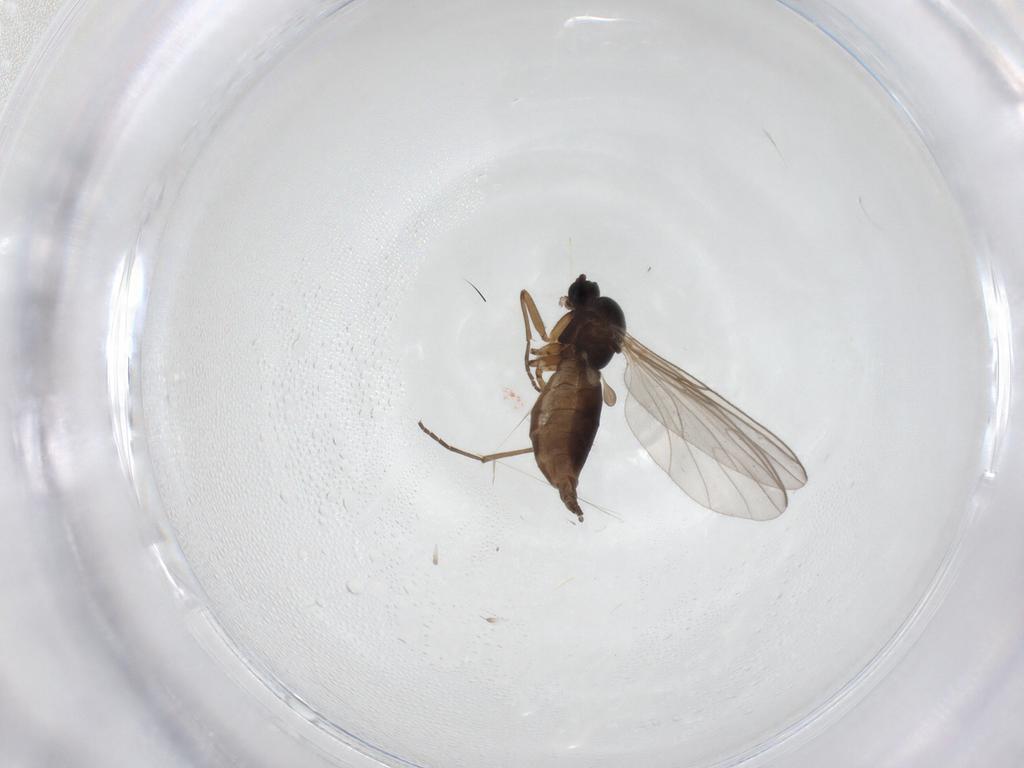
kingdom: Animalia
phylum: Arthropoda
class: Insecta
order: Diptera
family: Sciaridae
